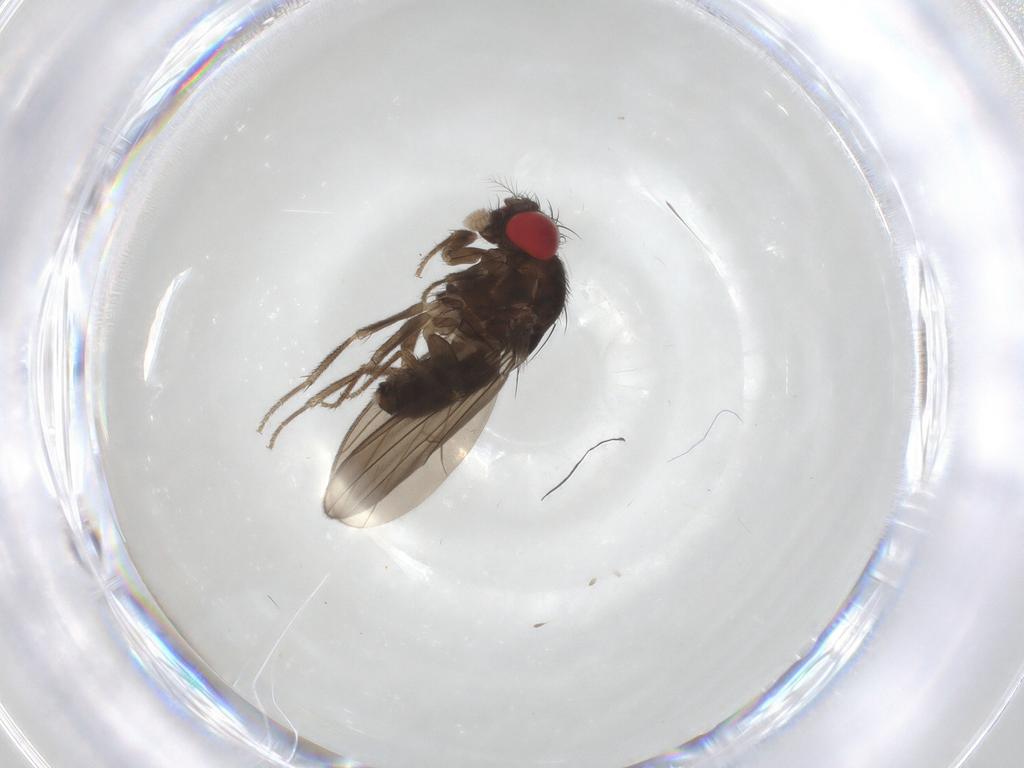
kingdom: Animalia
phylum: Arthropoda
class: Insecta
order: Diptera
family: Drosophilidae
